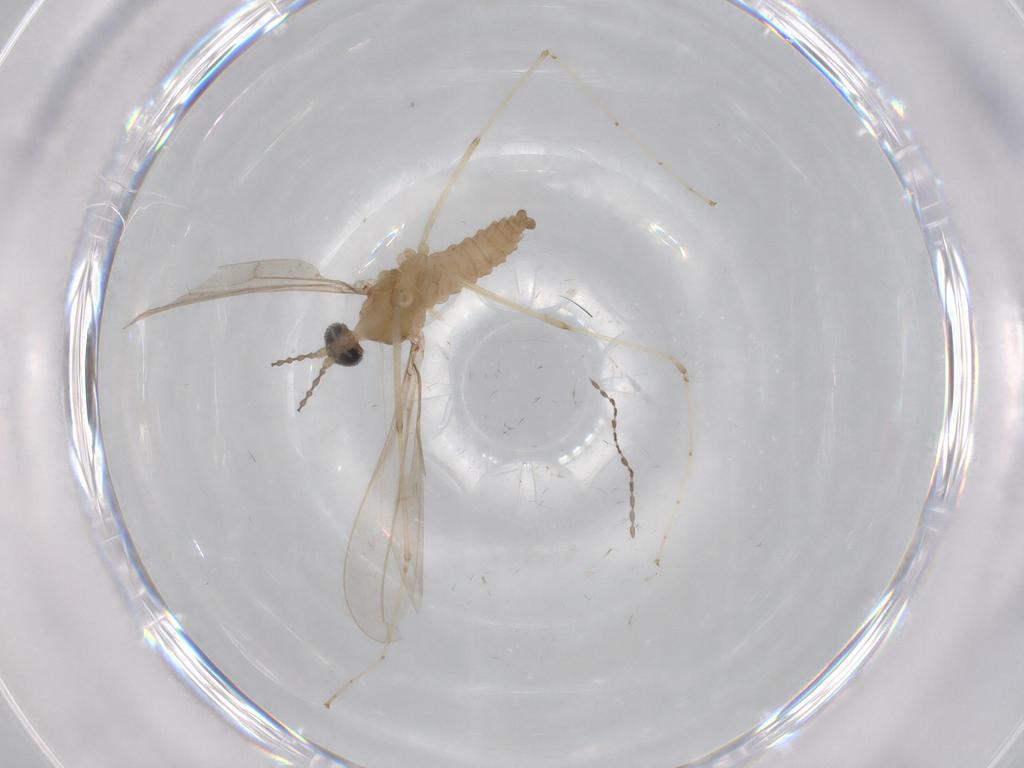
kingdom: Animalia
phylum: Arthropoda
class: Insecta
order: Diptera
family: Cecidomyiidae
